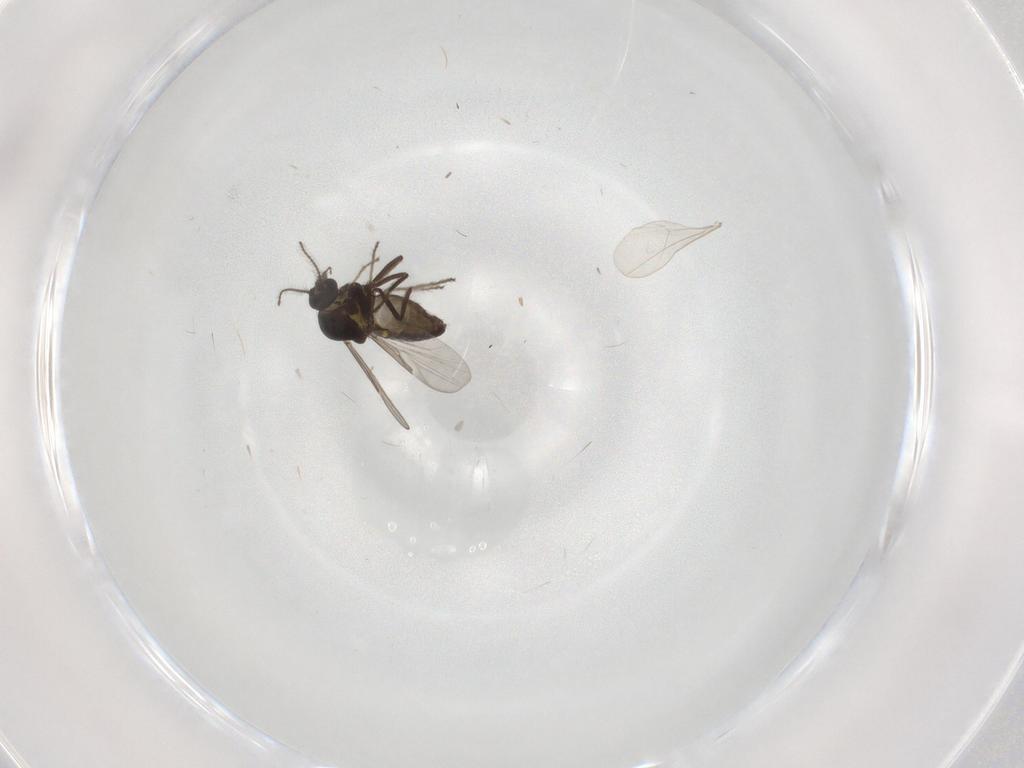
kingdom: Animalia
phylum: Arthropoda
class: Insecta
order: Diptera
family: Ceratopogonidae
